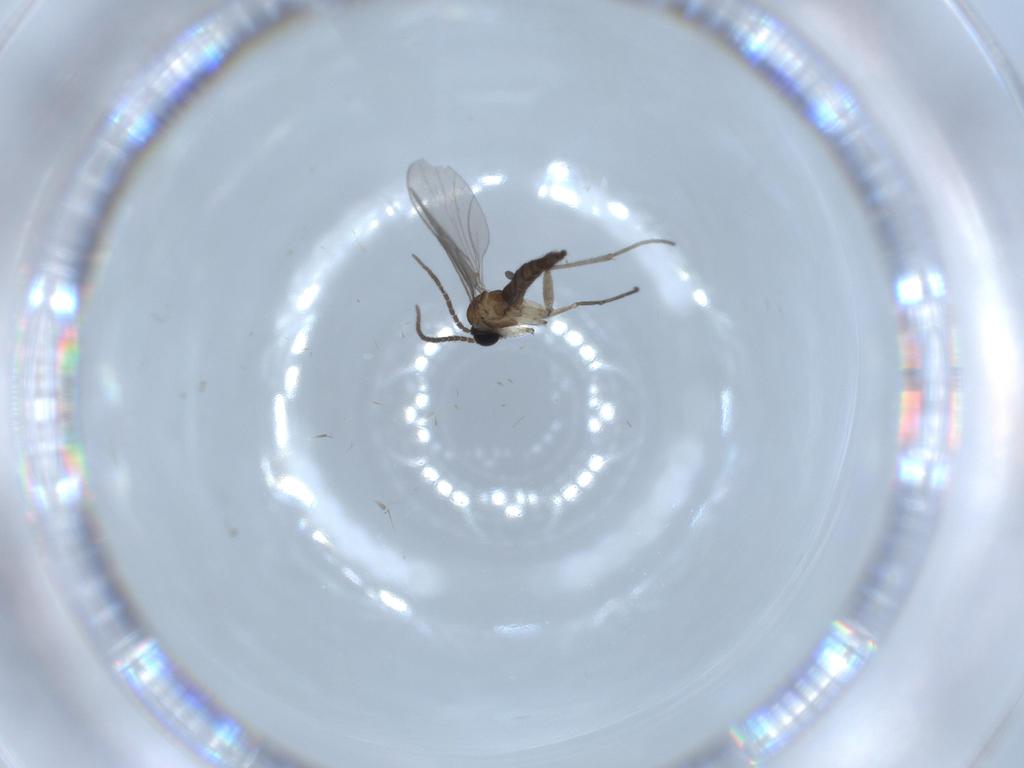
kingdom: Animalia
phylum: Arthropoda
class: Insecta
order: Diptera
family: Sciaridae
